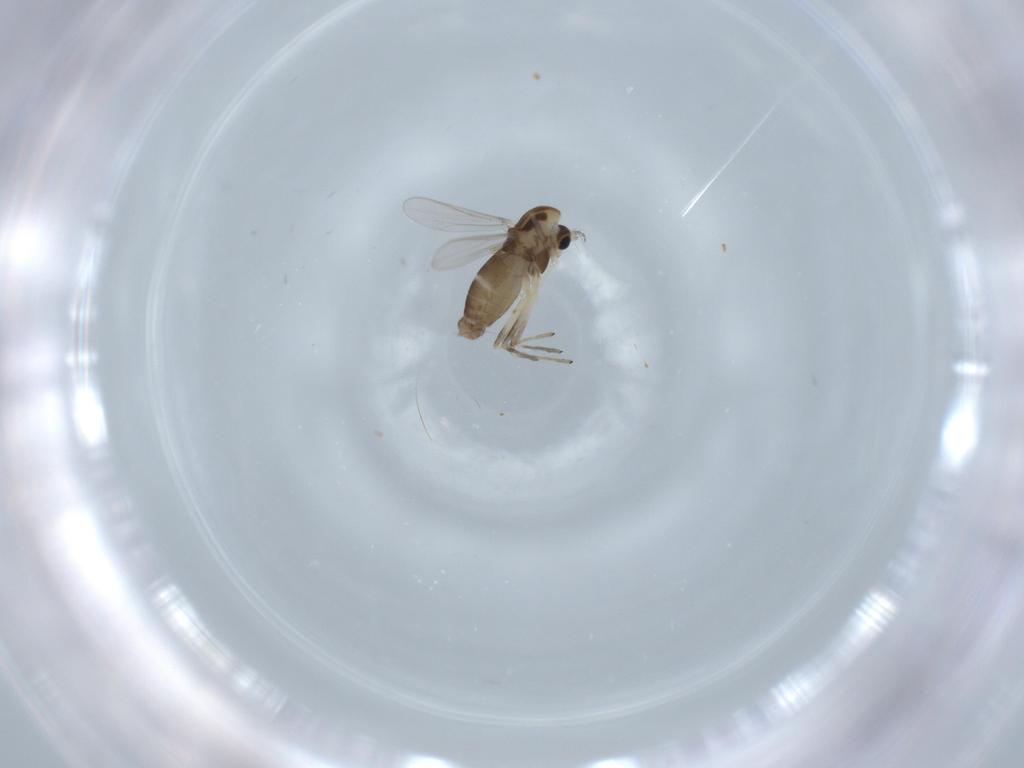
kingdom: Animalia
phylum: Arthropoda
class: Insecta
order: Diptera
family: Chironomidae
